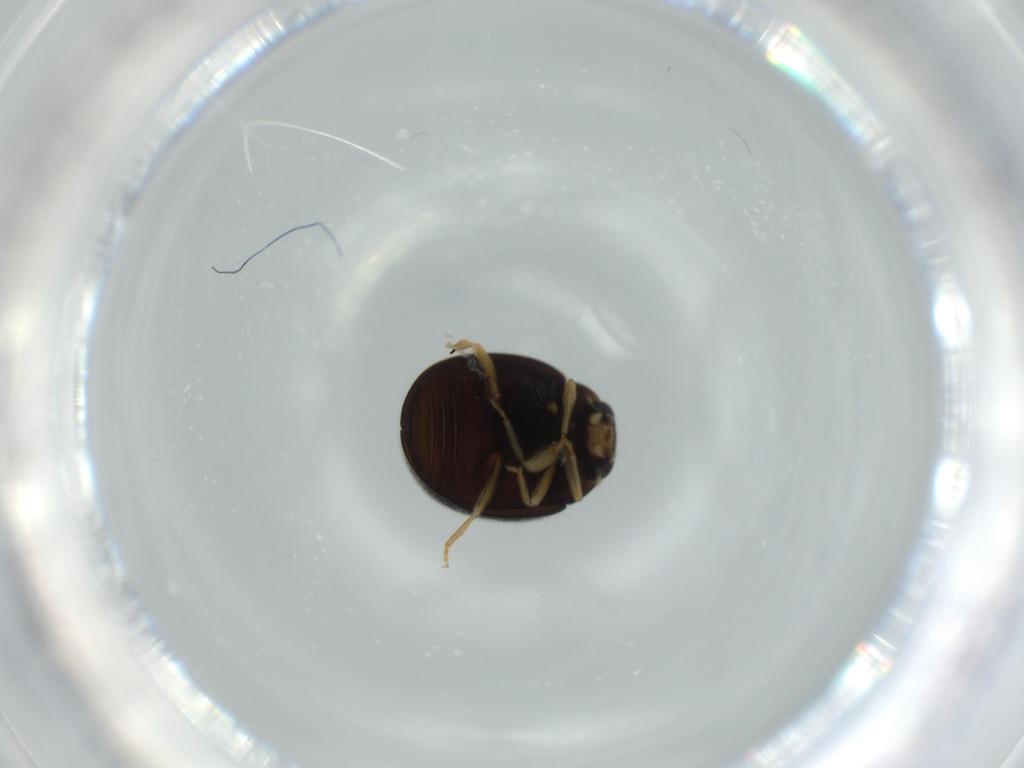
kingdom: Animalia
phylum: Arthropoda
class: Insecta
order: Coleoptera
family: Coccinellidae
